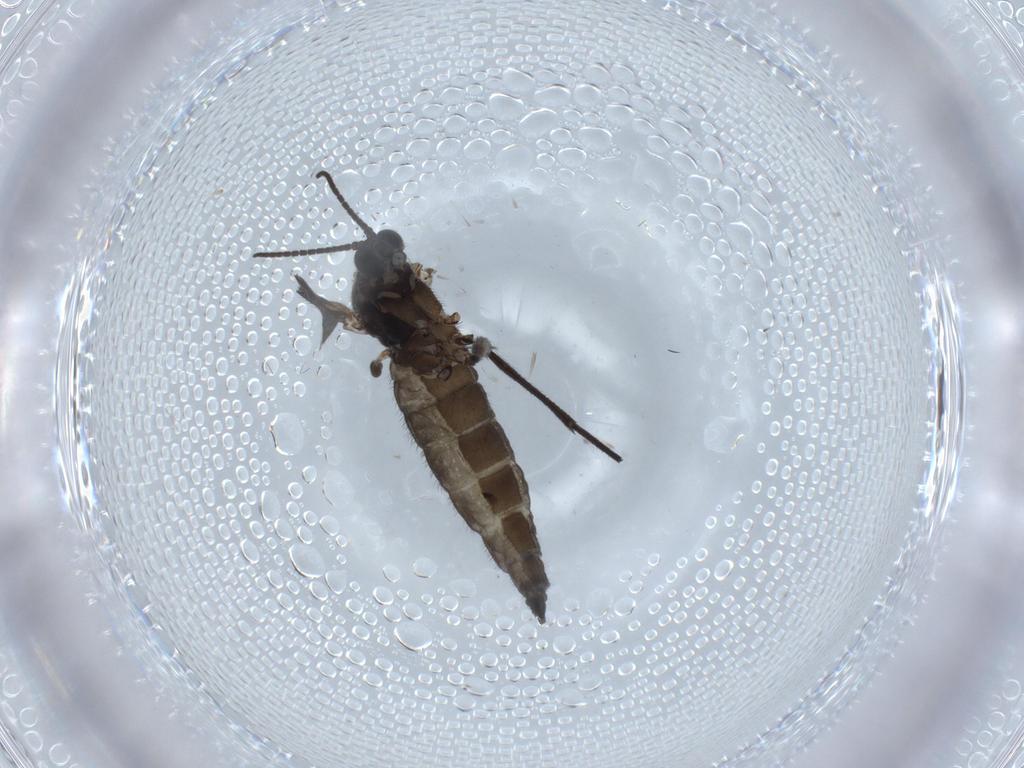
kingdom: Animalia
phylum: Arthropoda
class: Insecta
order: Diptera
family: Sciaridae
